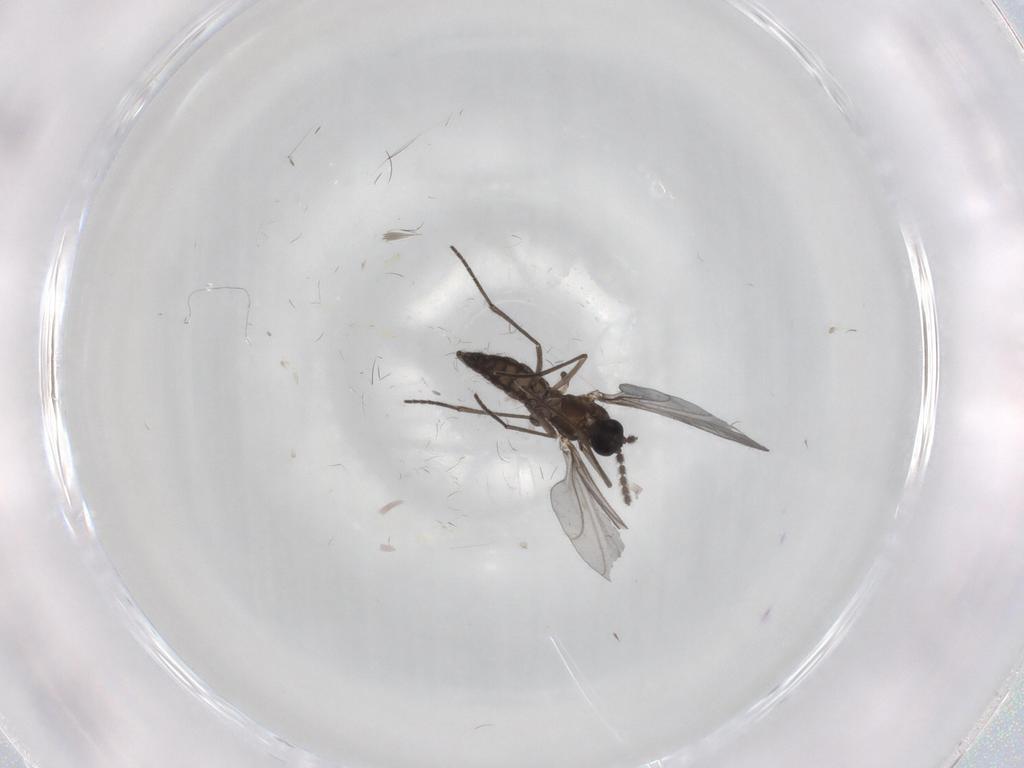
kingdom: Animalia
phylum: Arthropoda
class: Insecta
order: Diptera
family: Sciaridae
